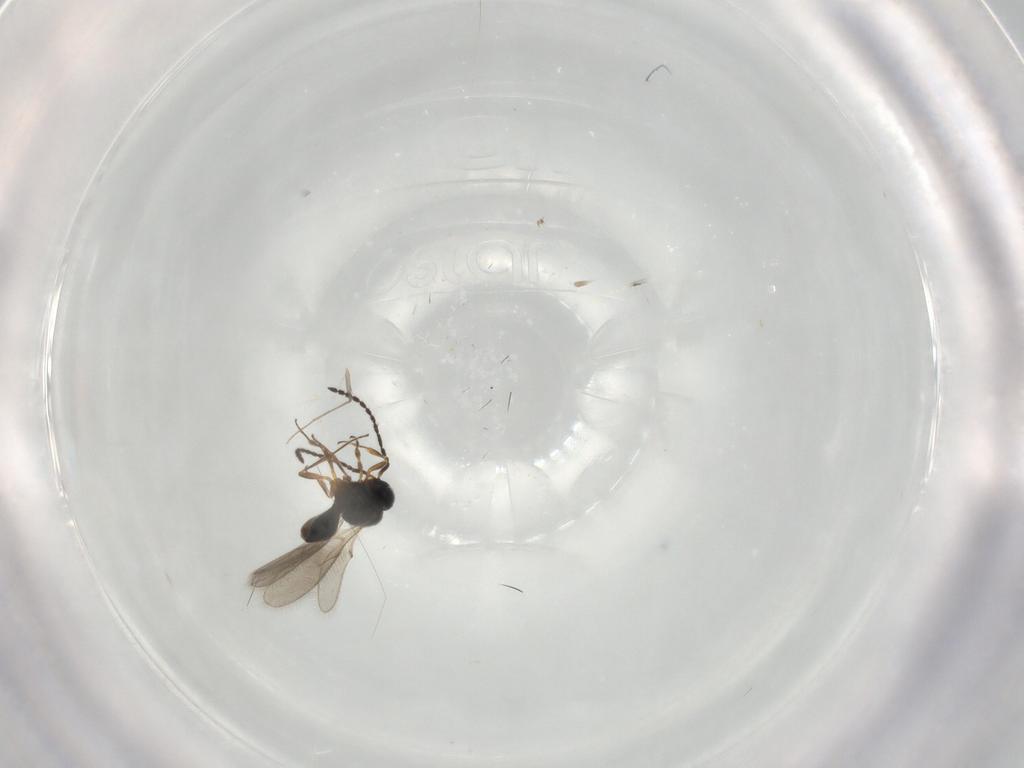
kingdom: Animalia
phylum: Arthropoda
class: Insecta
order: Hymenoptera
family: Scelionidae
